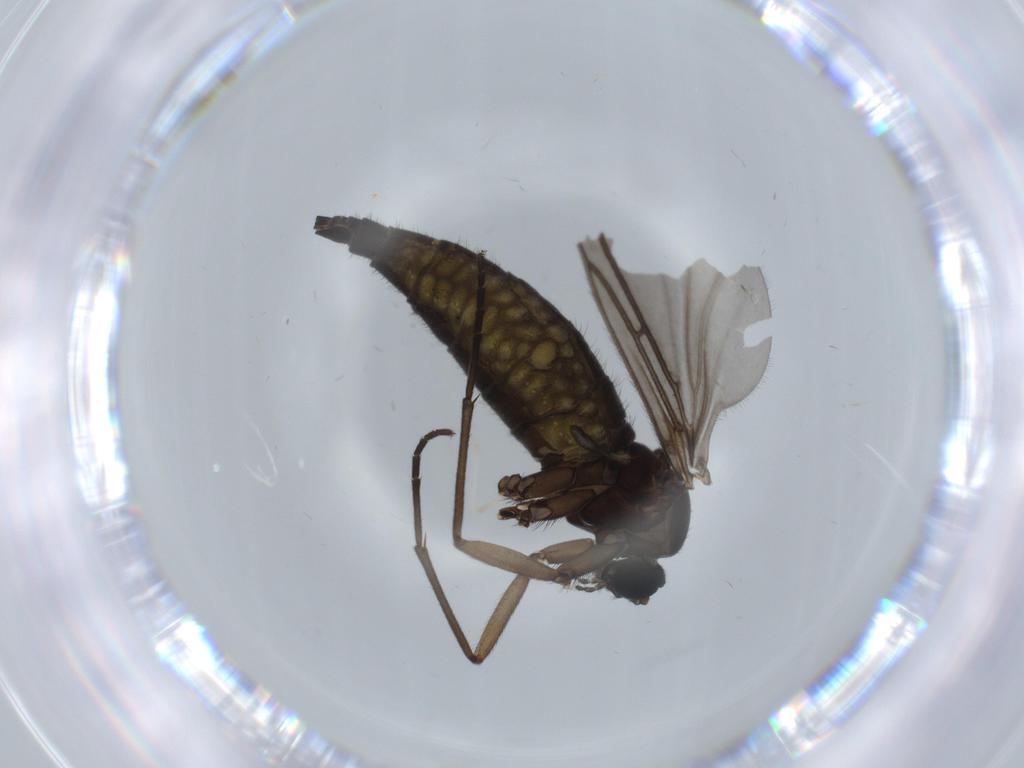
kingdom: Animalia
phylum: Arthropoda
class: Insecta
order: Diptera
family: Sciaridae
